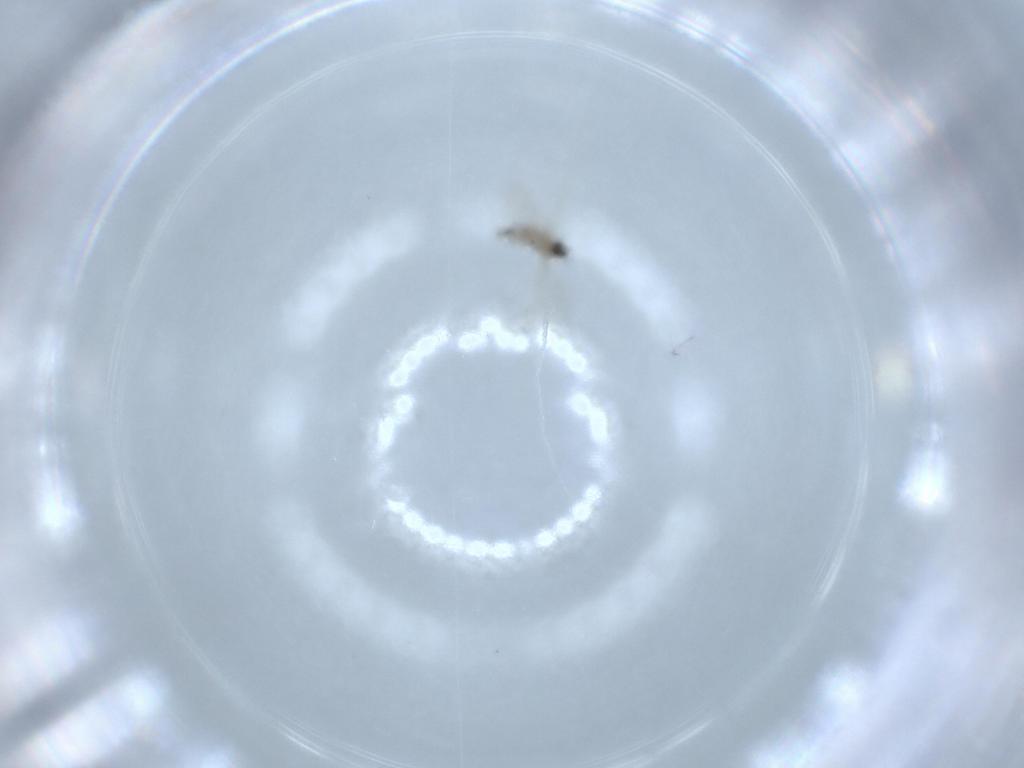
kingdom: Animalia
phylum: Arthropoda
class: Insecta
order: Diptera
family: Cecidomyiidae
